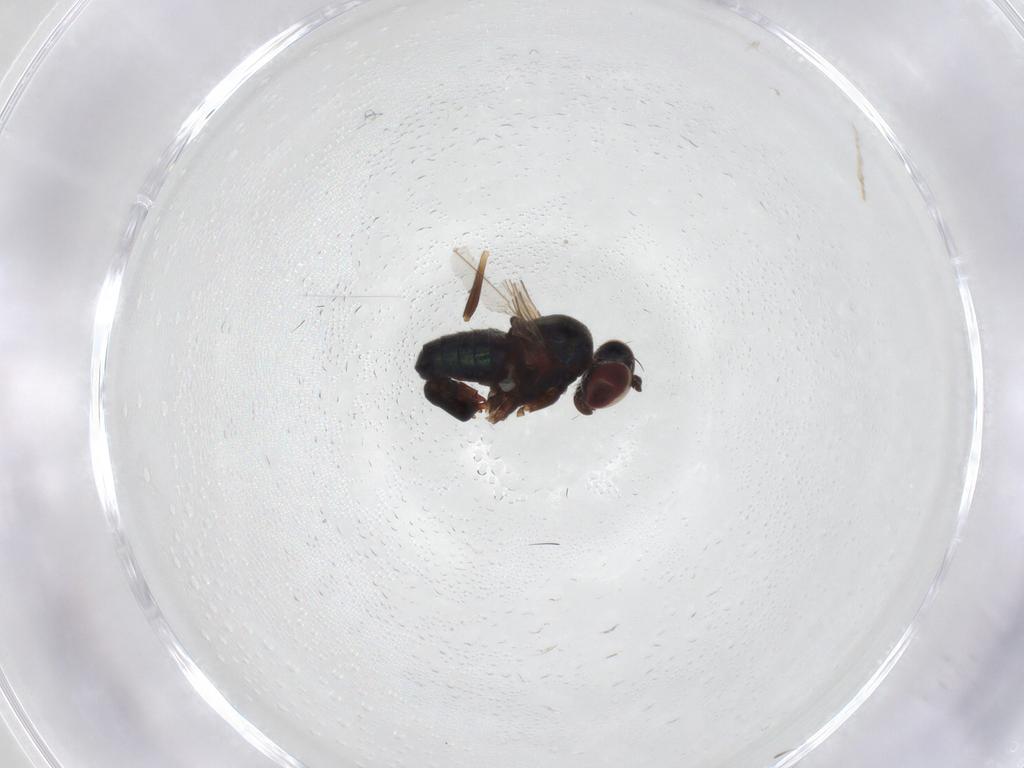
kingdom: Animalia
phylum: Arthropoda
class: Insecta
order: Diptera
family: Dolichopodidae
